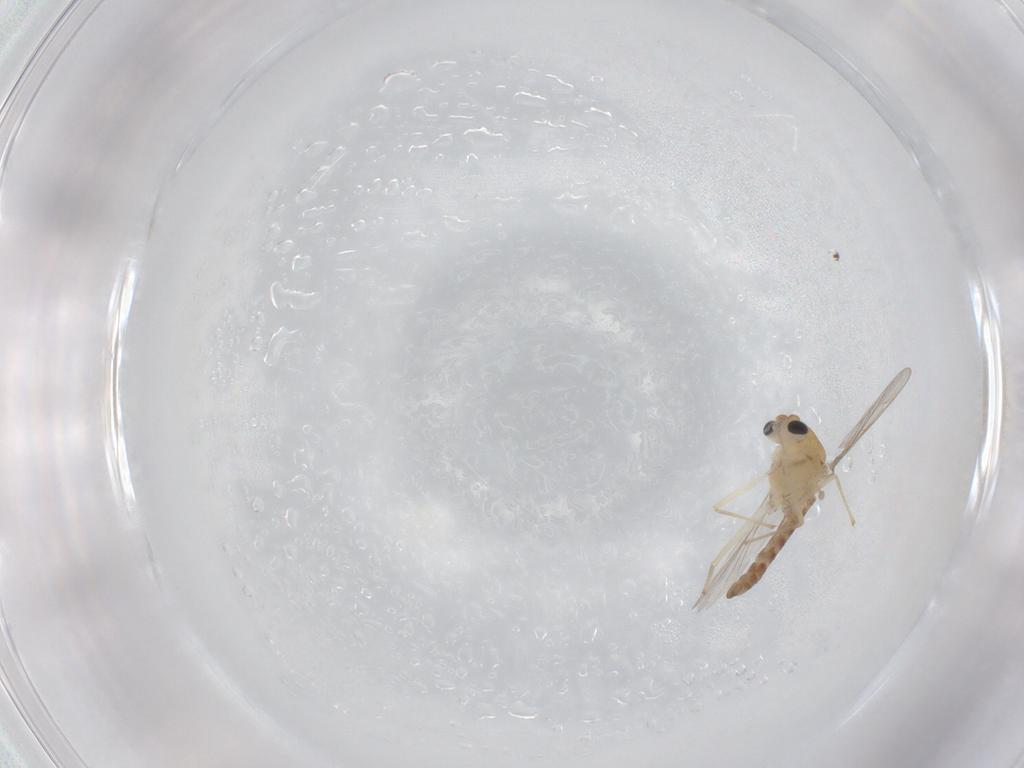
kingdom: Animalia
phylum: Arthropoda
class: Insecta
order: Diptera
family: Chironomidae
